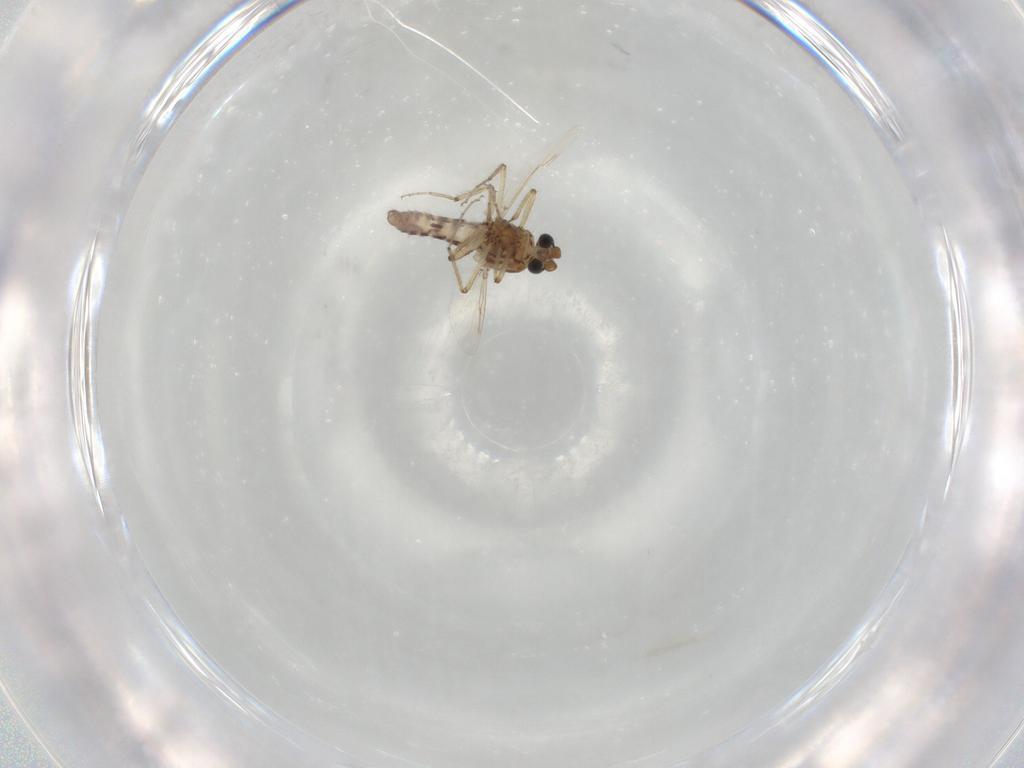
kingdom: Animalia
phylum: Arthropoda
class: Insecta
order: Diptera
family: Ceratopogonidae
